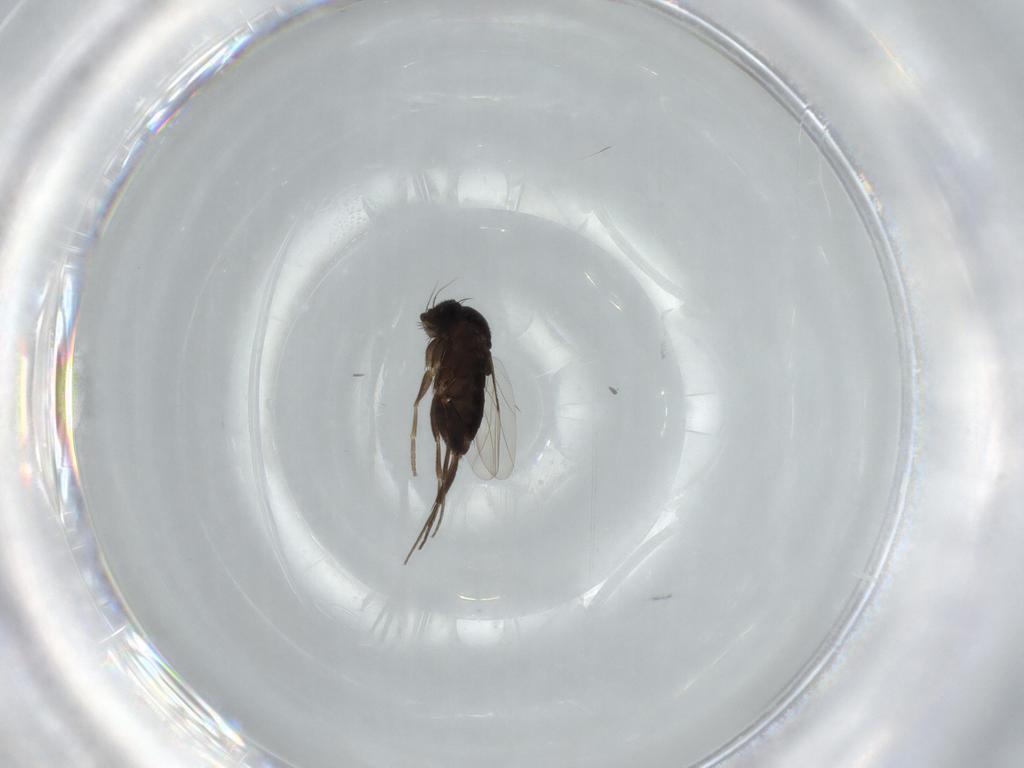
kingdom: Animalia
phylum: Arthropoda
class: Insecta
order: Diptera
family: Phoridae
